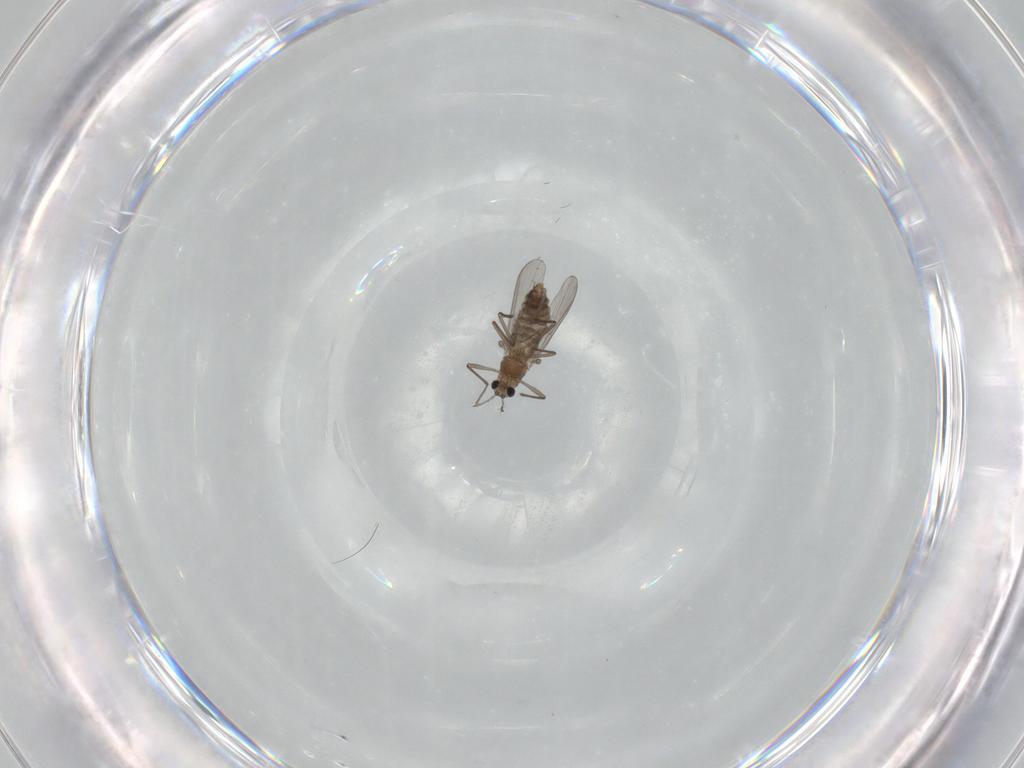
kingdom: Animalia
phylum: Arthropoda
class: Insecta
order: Diptera
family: Chironomidae
